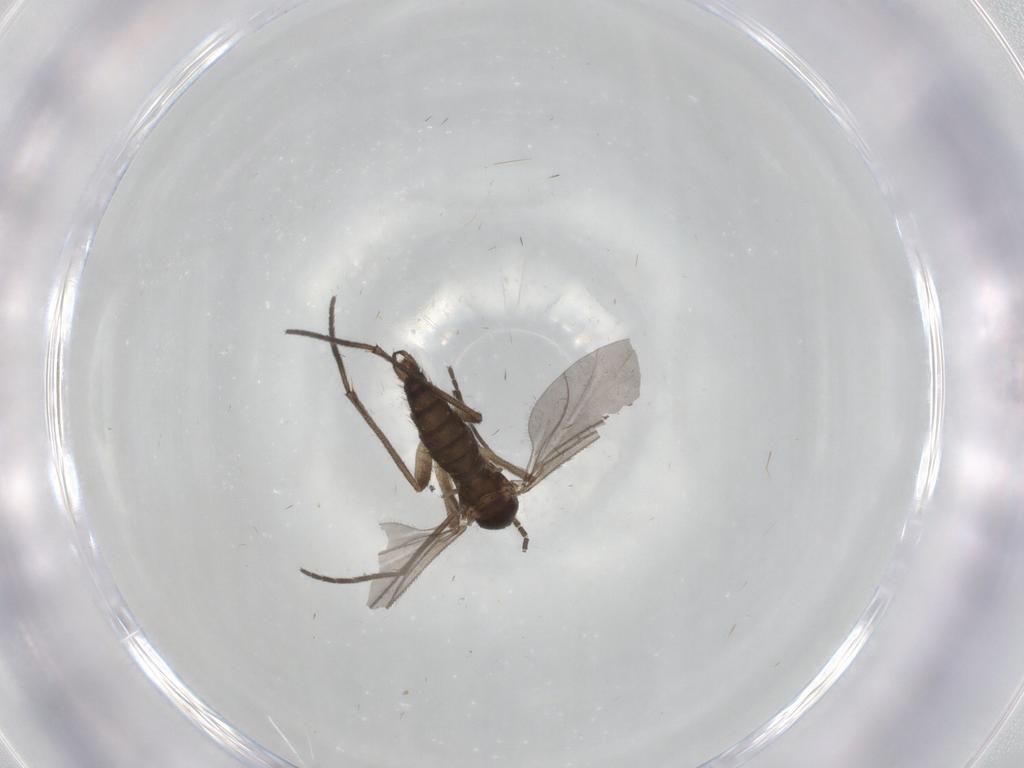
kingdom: Animalia
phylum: Arthropoda
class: Insecta
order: Diptera
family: Sciaridae
